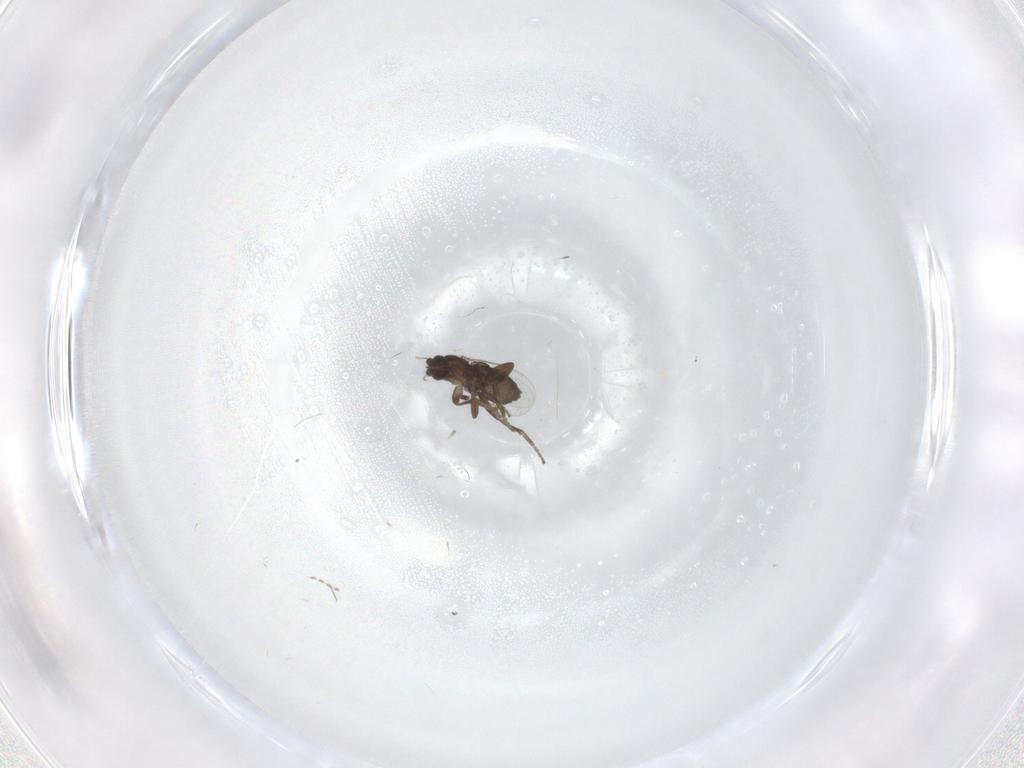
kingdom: Animalia
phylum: Arthropoda
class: Insecta
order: Diptera
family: Phoridae
